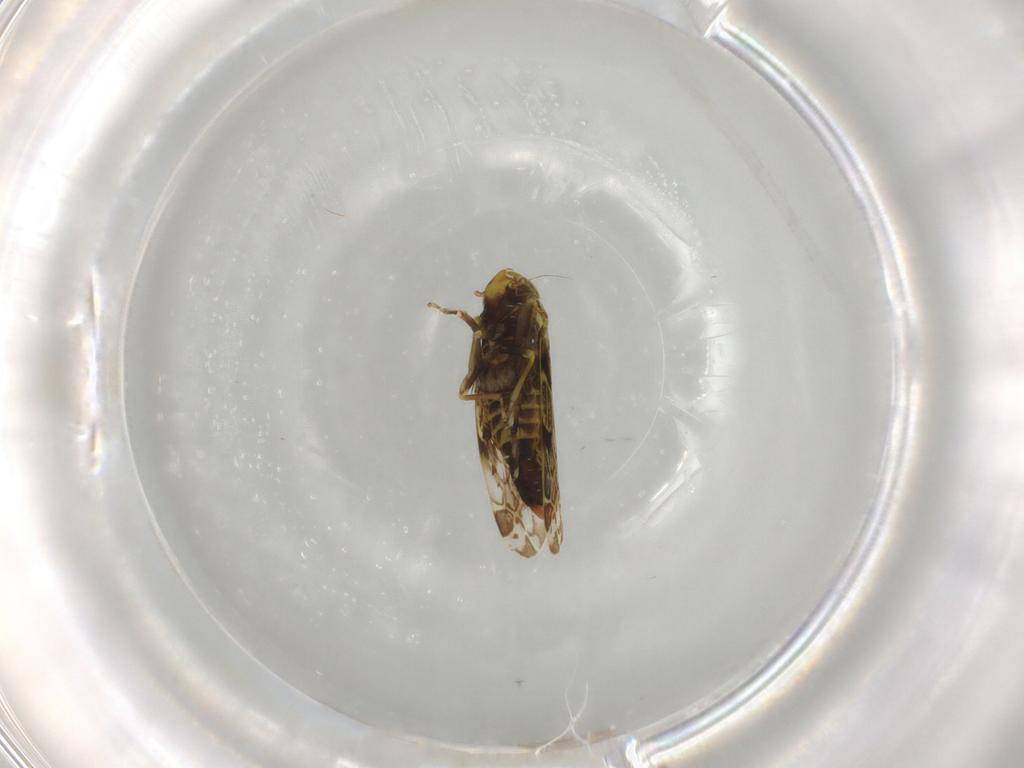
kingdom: Animalia
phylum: Arthropoda
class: Insecta
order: Hemiptera
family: Cicadellidae
